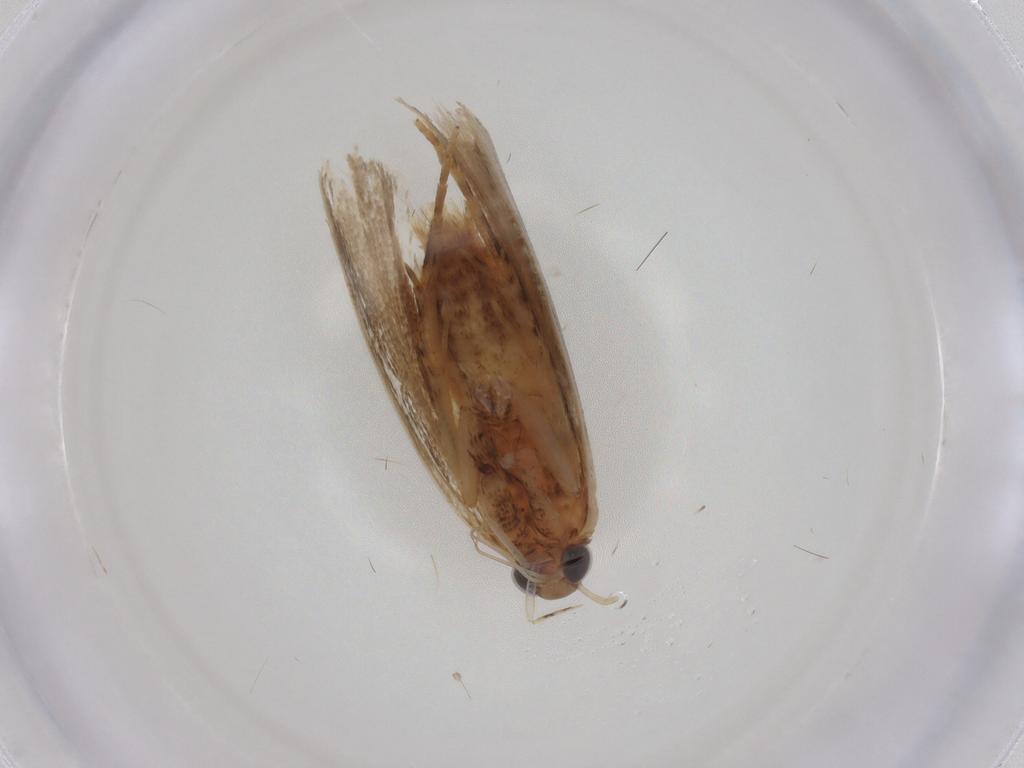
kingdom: Animalia
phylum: Arthropoda
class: Insecta
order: Lepidoptera
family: Gelechiidae
